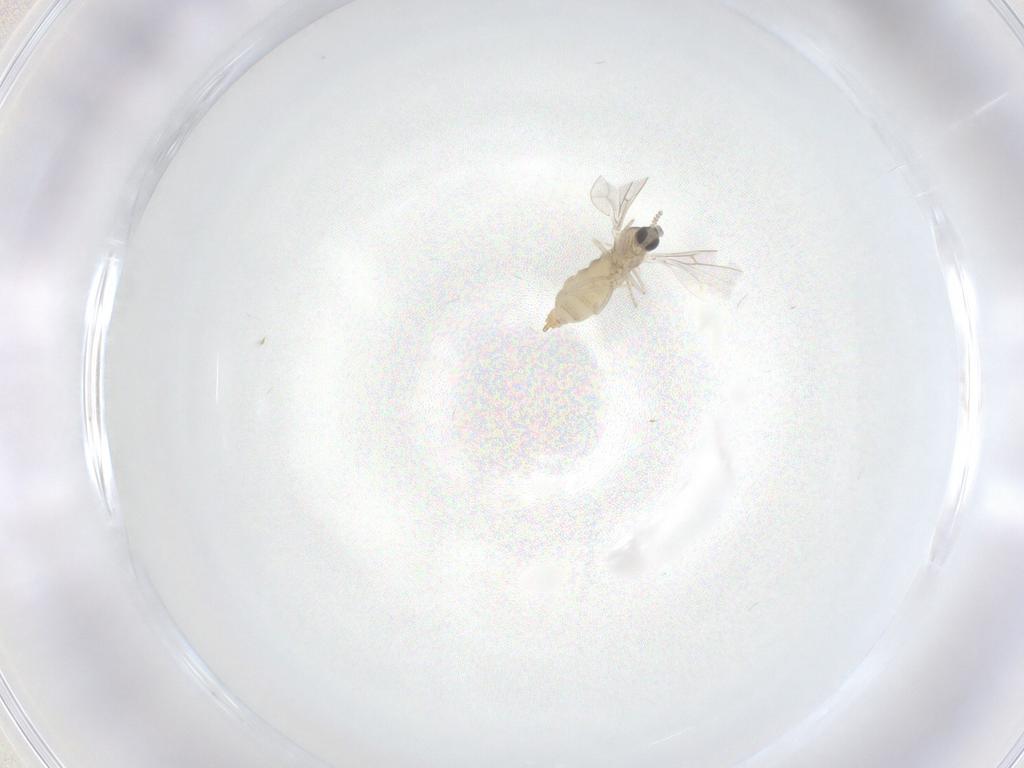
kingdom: Animalia
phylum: Arthropoda
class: Insecta
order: Diptera
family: Cecidomyiidae
